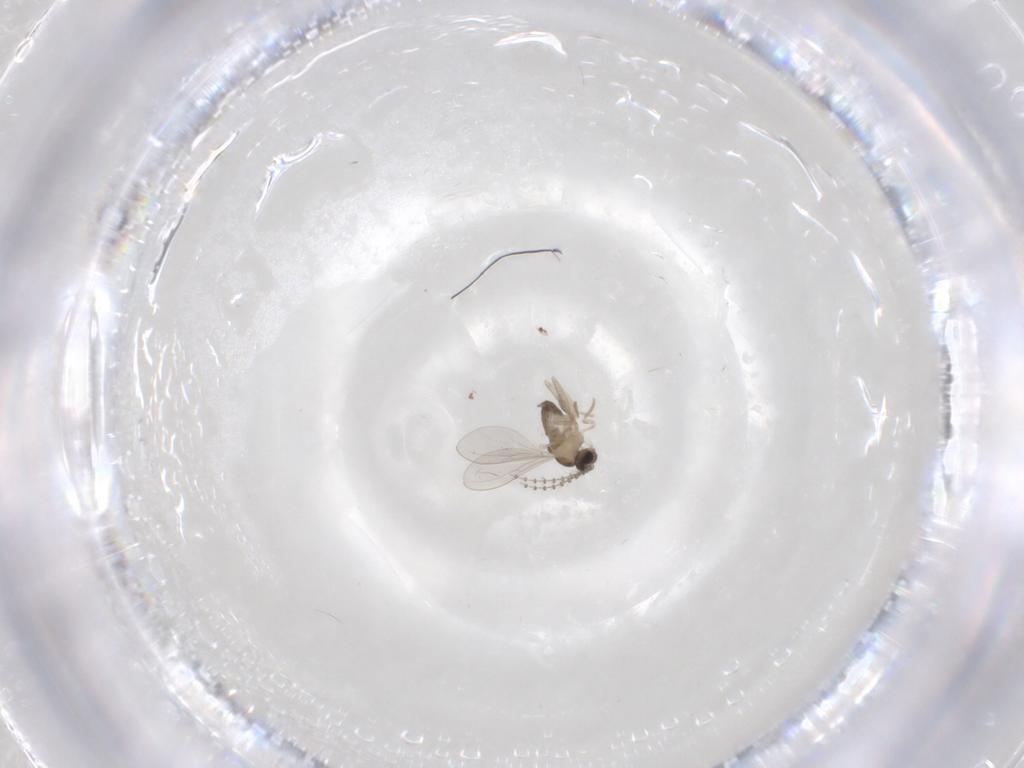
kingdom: Animalia
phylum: Arthropoda
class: Insecta
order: Diptera
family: Cecidomyiidae
